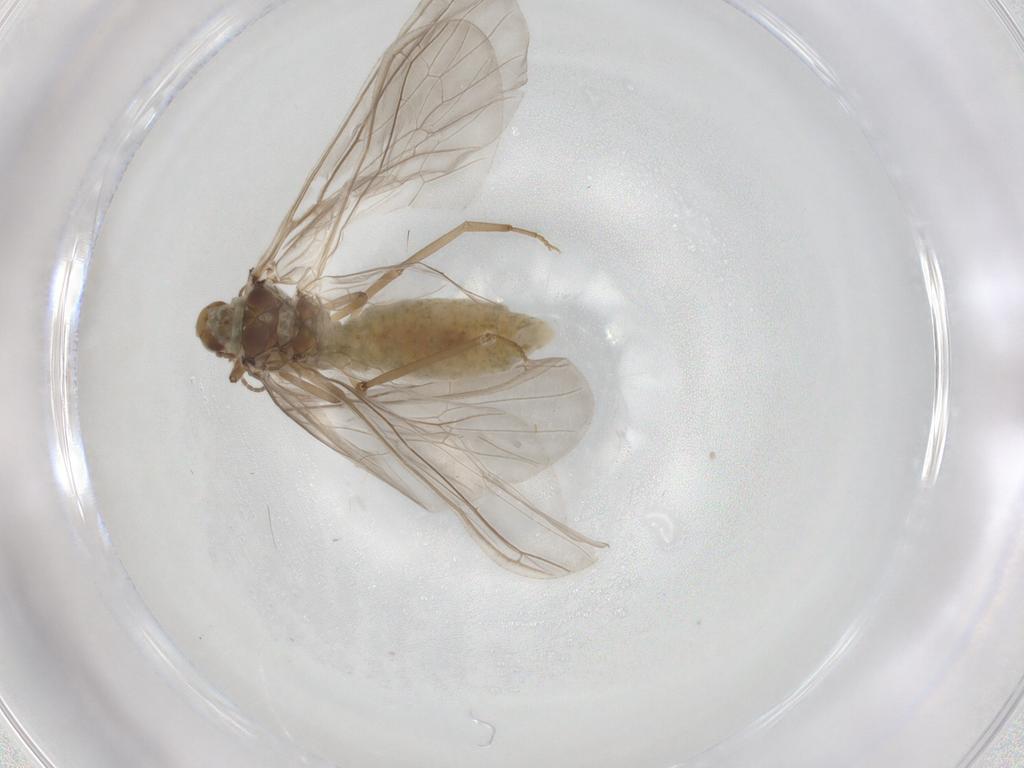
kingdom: Animalia
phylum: Arthropoda
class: Insecta
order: Neuroptera
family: Coniopterygidae
